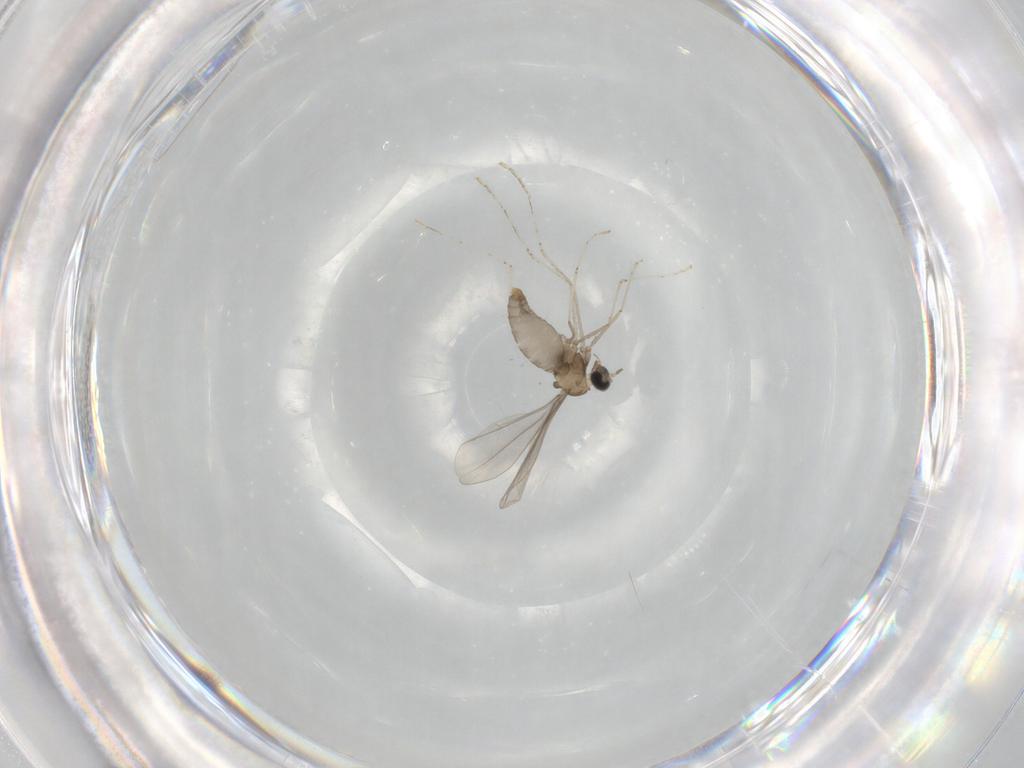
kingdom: Animalia
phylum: Arthropoda
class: Insecta
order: Diptera
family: Cecidomyiidae
